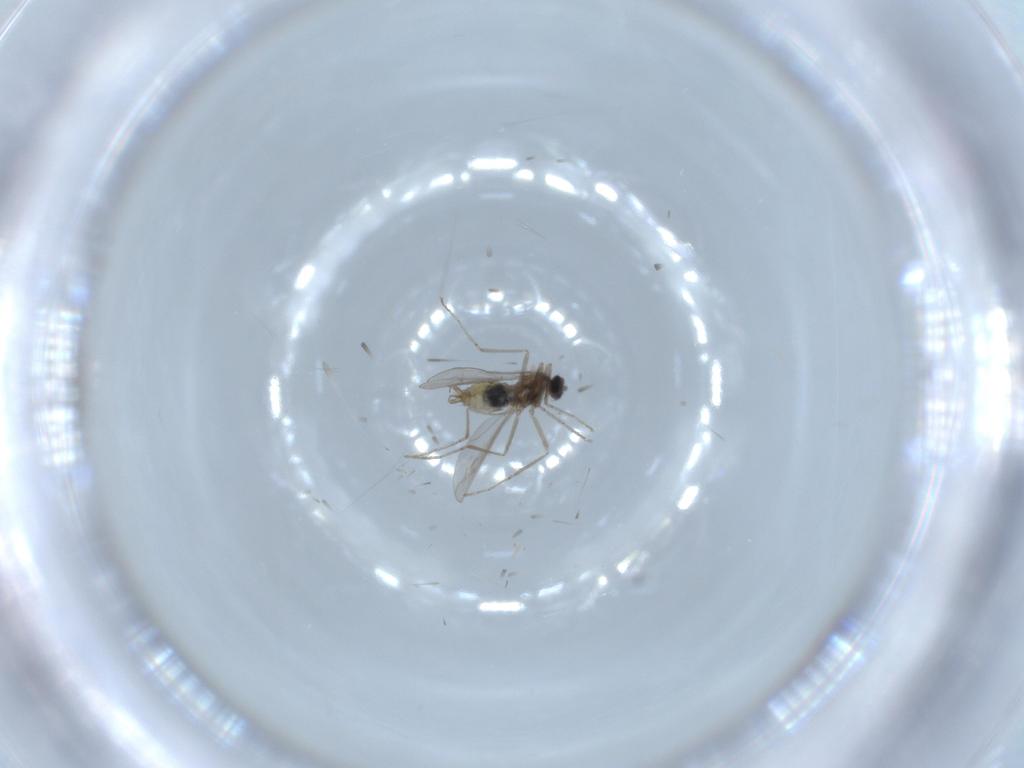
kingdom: Animalia
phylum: Arthropoda
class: Insecta
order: Diptera
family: Cecidomyiidae
